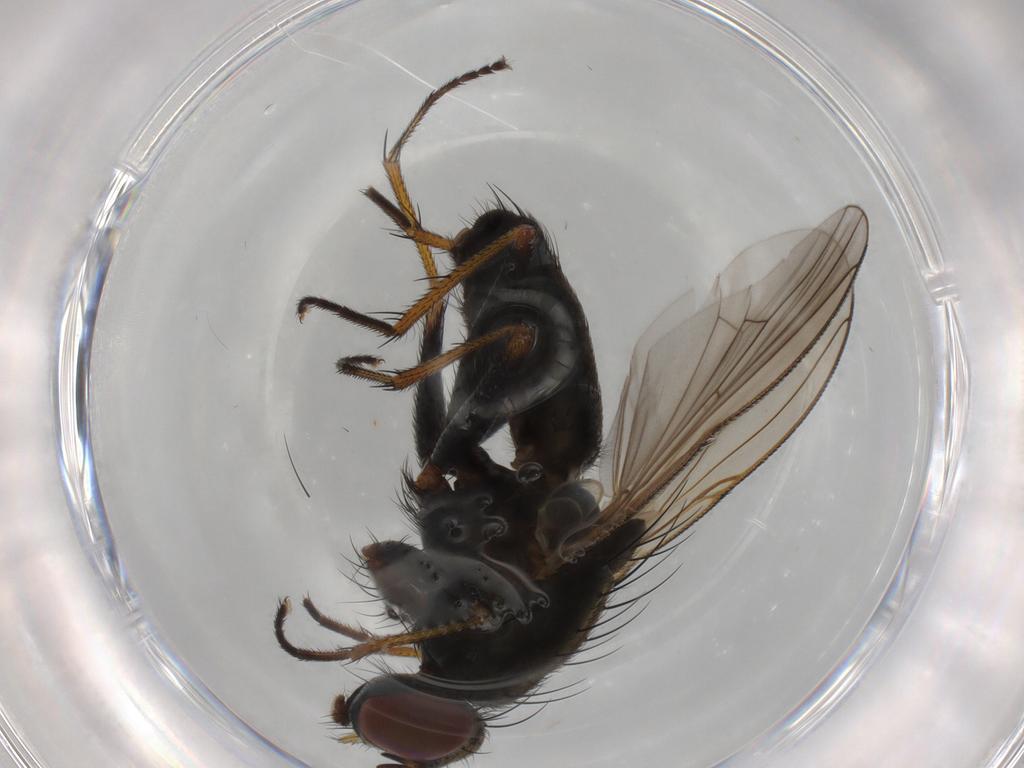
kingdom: Animalia
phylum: Arthropoda
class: Insecta
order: Diptera
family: Muscidae
